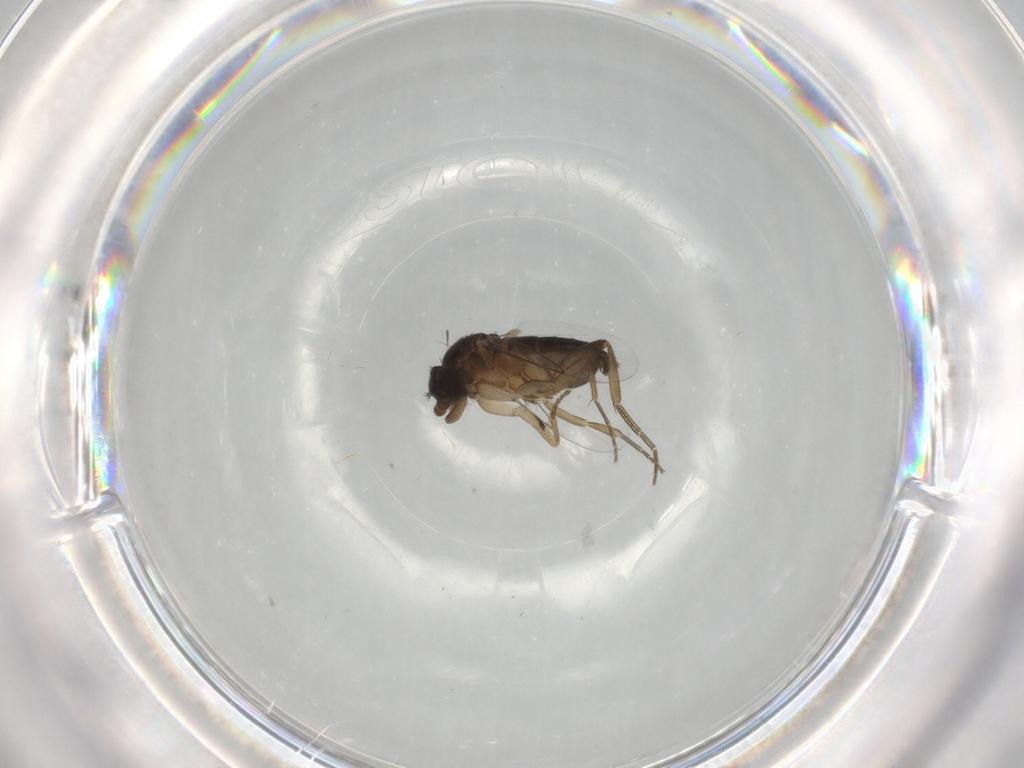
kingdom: Animalia
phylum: Arthropoda
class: Insecta
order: Diptera
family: Phoridae
